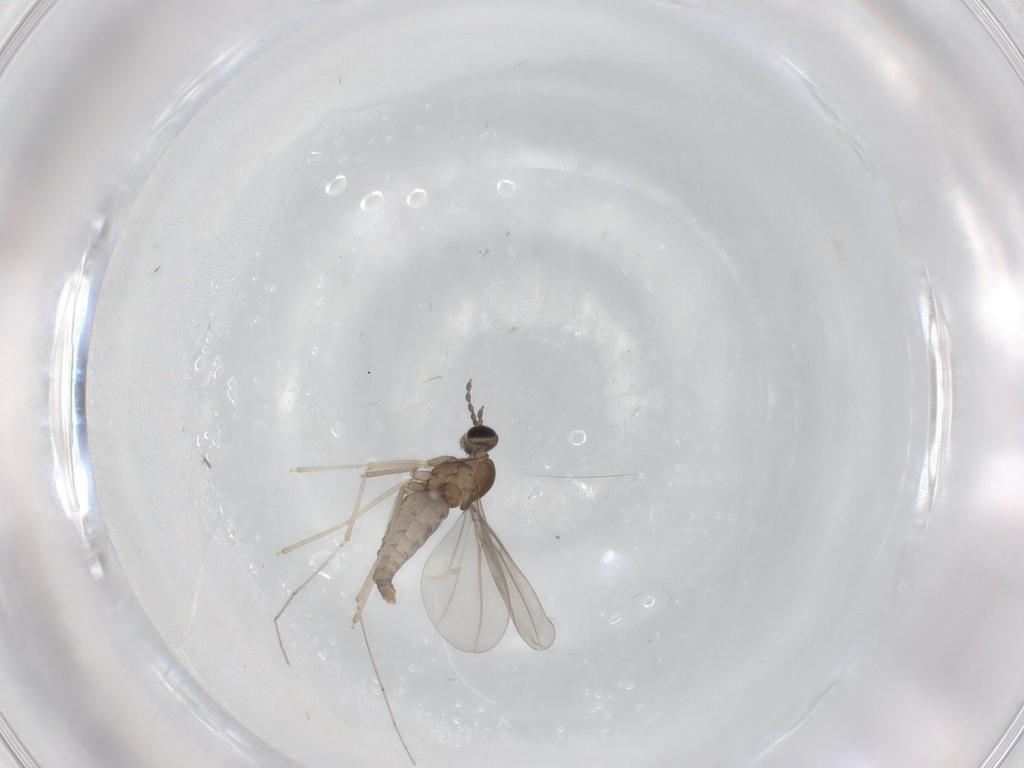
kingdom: Animalia
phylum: Arthropoda
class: Insecta
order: Diptera
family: Cecidomyiidae
